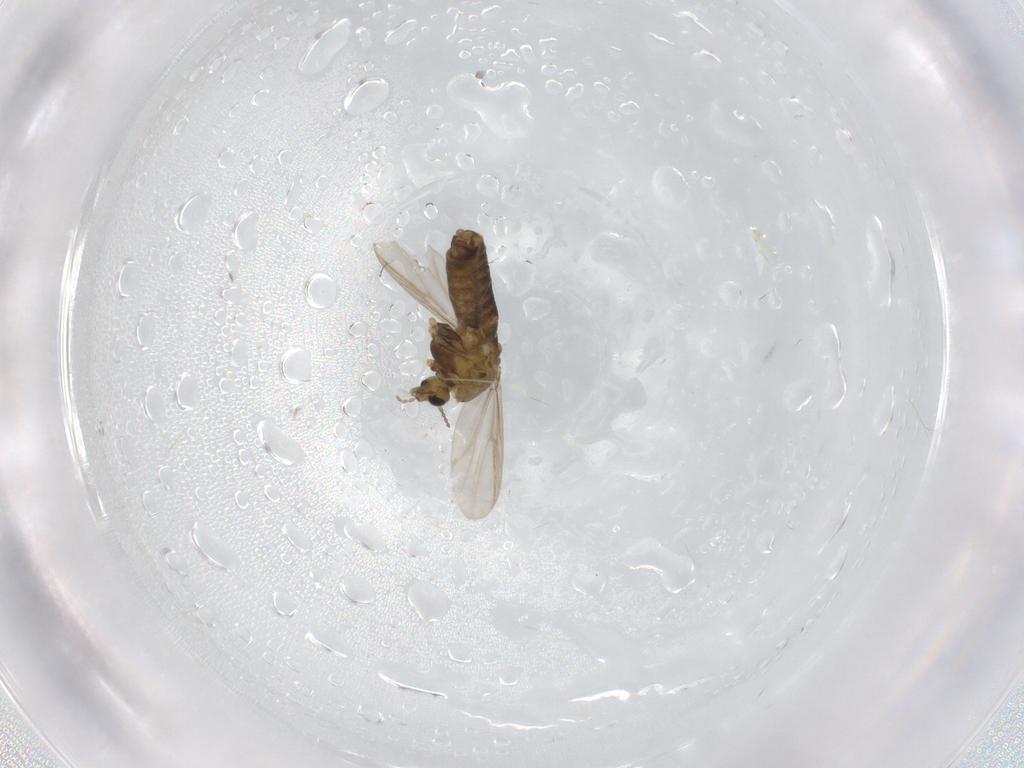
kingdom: Animalia
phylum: Arthropoda
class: Insecta
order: Diptera
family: Chironomidae
